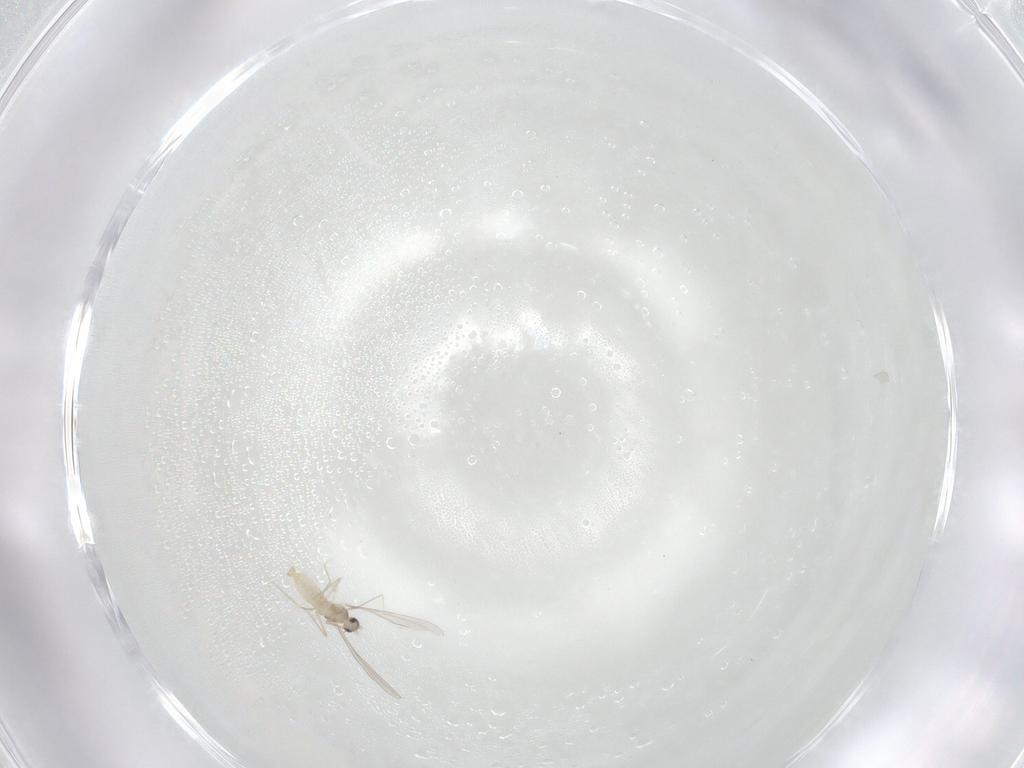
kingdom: Animalia
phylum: Arthropoda
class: Insecta
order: Diptera
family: Cecidomyiidae
